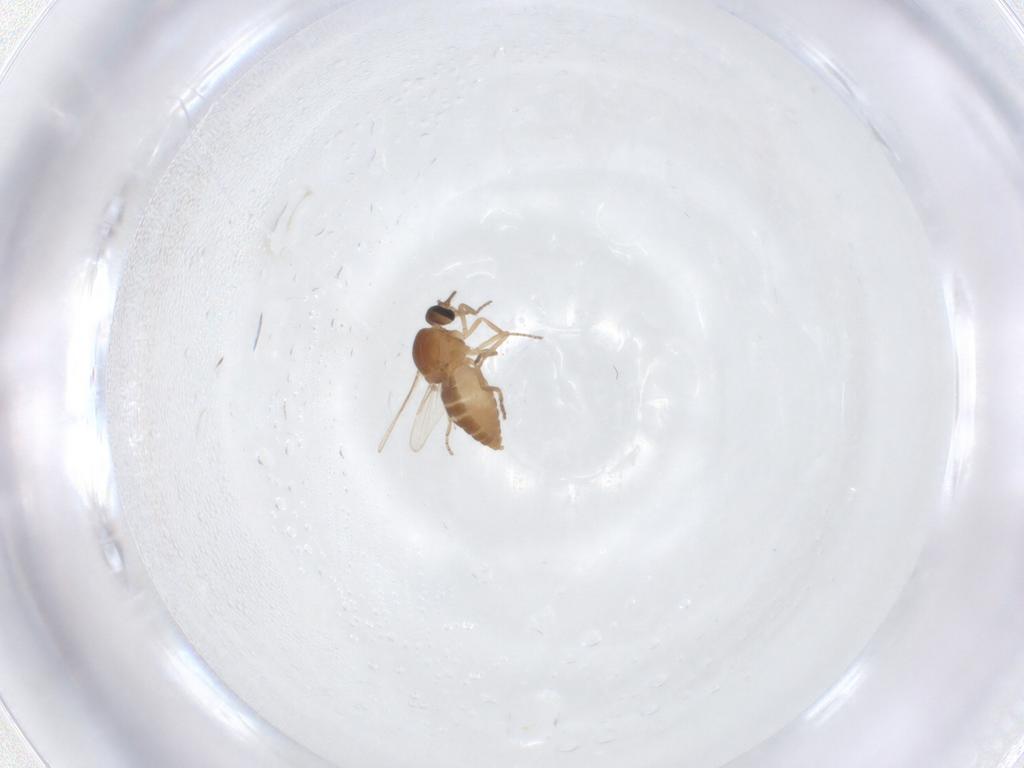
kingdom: Animalia
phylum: Arthropoda
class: Insecta
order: Diptera
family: Ceratopogonidae
